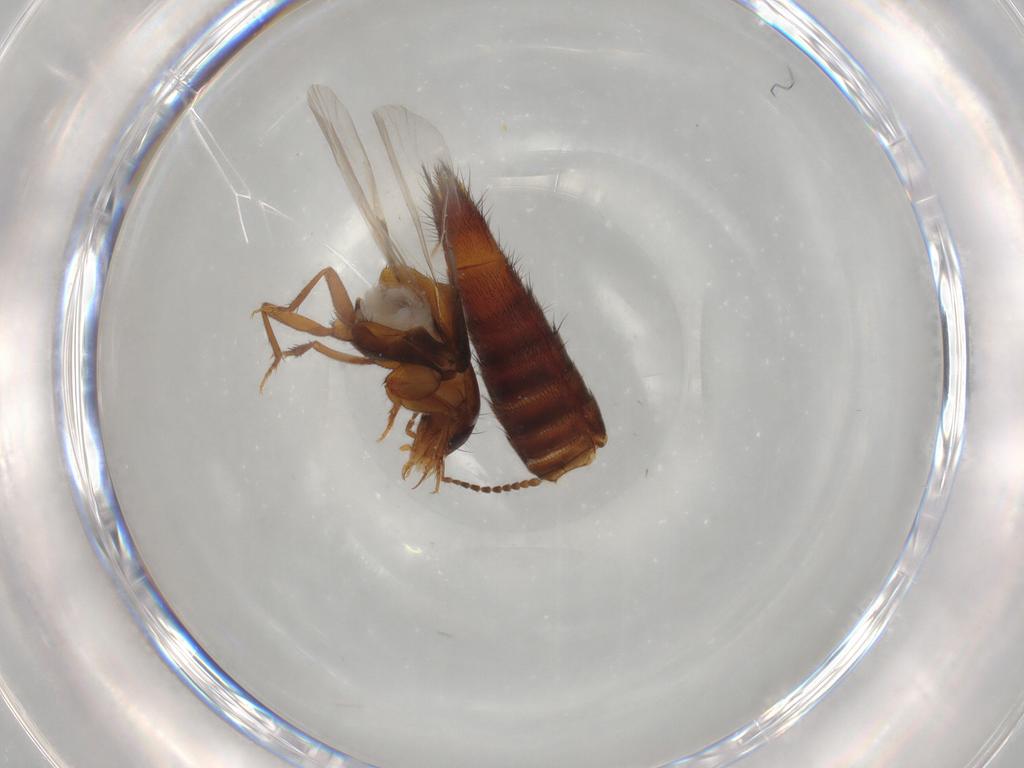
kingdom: Animalia
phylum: Arthropoda
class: Insecta
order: Coleoptera
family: Staphylinidae
